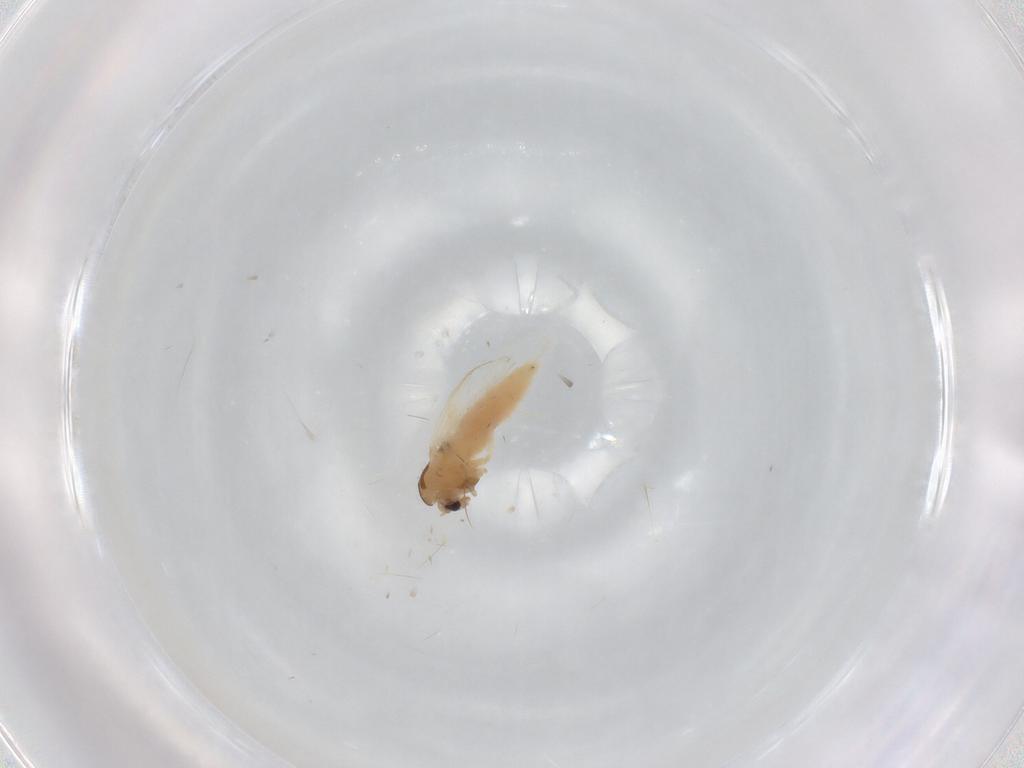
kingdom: Animalia
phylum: Arthropoda
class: Insecta
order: Diptera
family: Chironomidae
